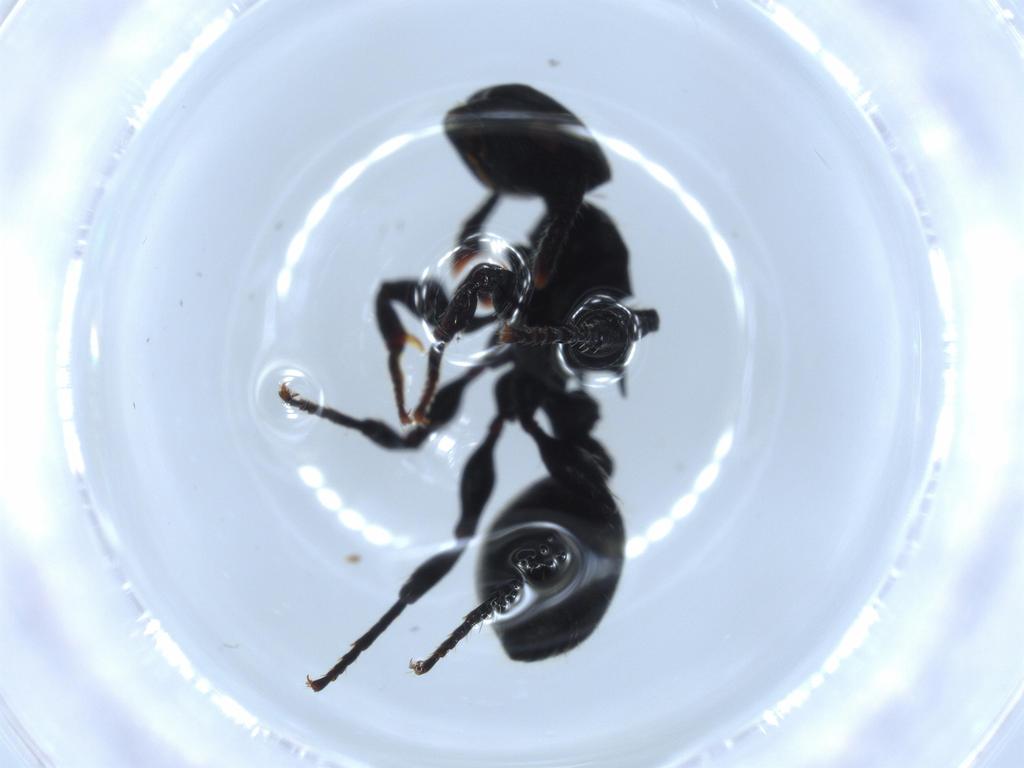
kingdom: Animalia
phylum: Arthropoda
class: Insecta
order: Hymenoptera
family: Formicidae
